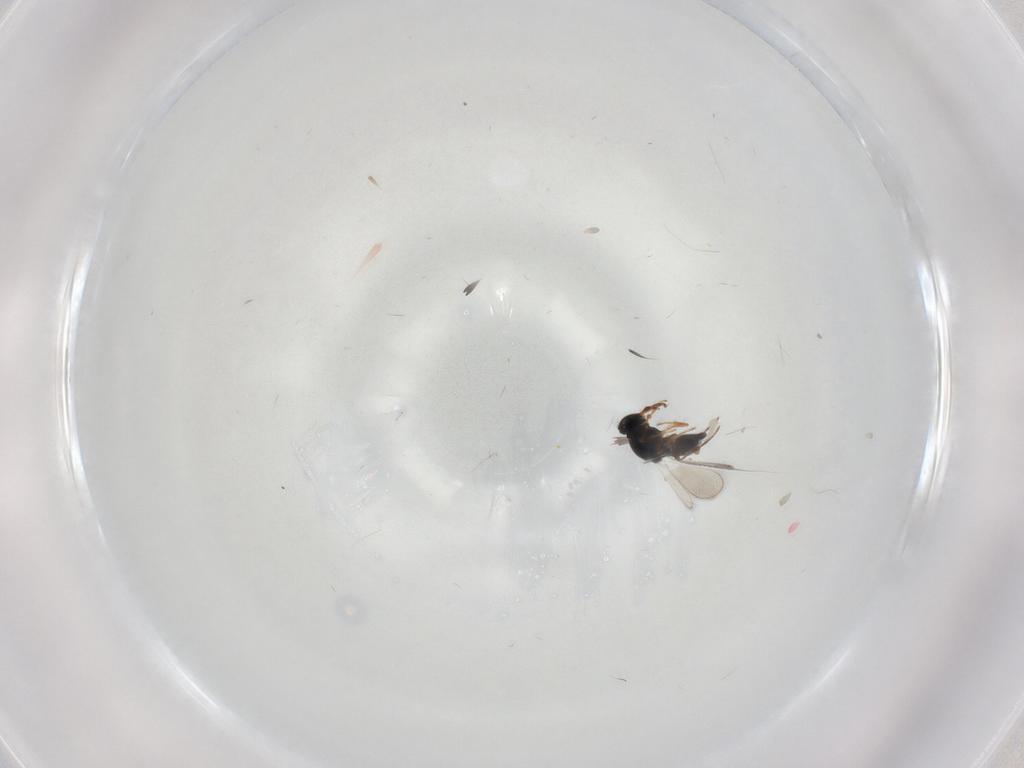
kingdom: Animalia
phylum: Arthropoda
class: Insecta
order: Hymenoptera
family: Platygastridae
